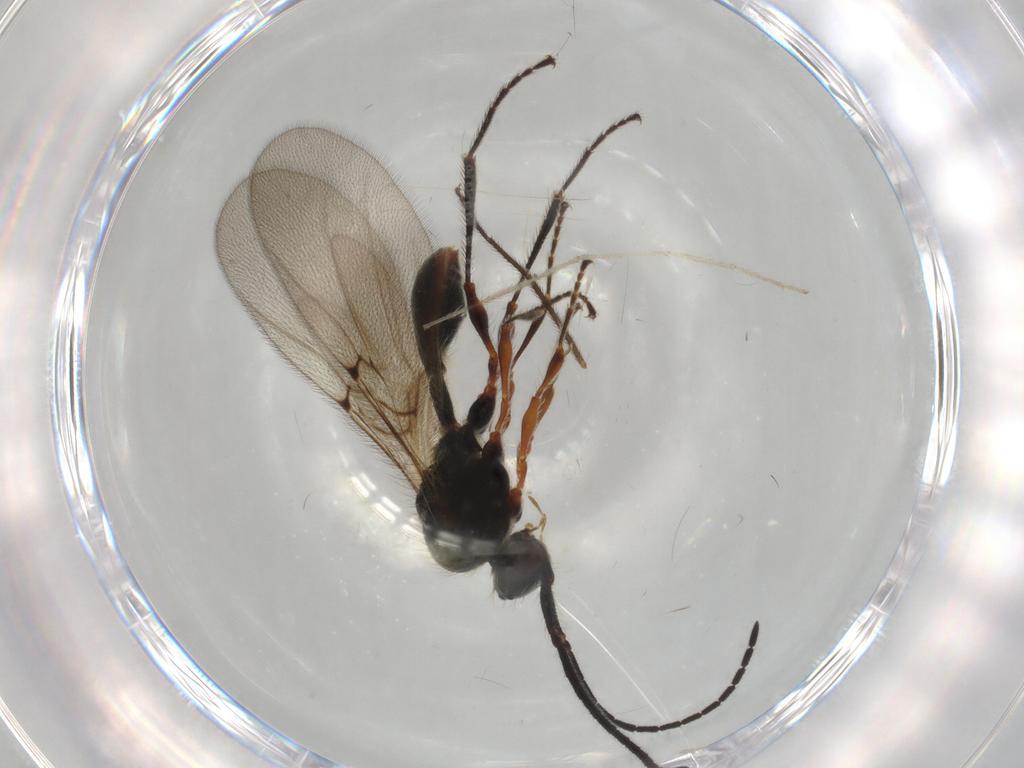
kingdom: Animalia
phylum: Arthropoda
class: Insecta
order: Hymenoptera
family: Diapriidae
